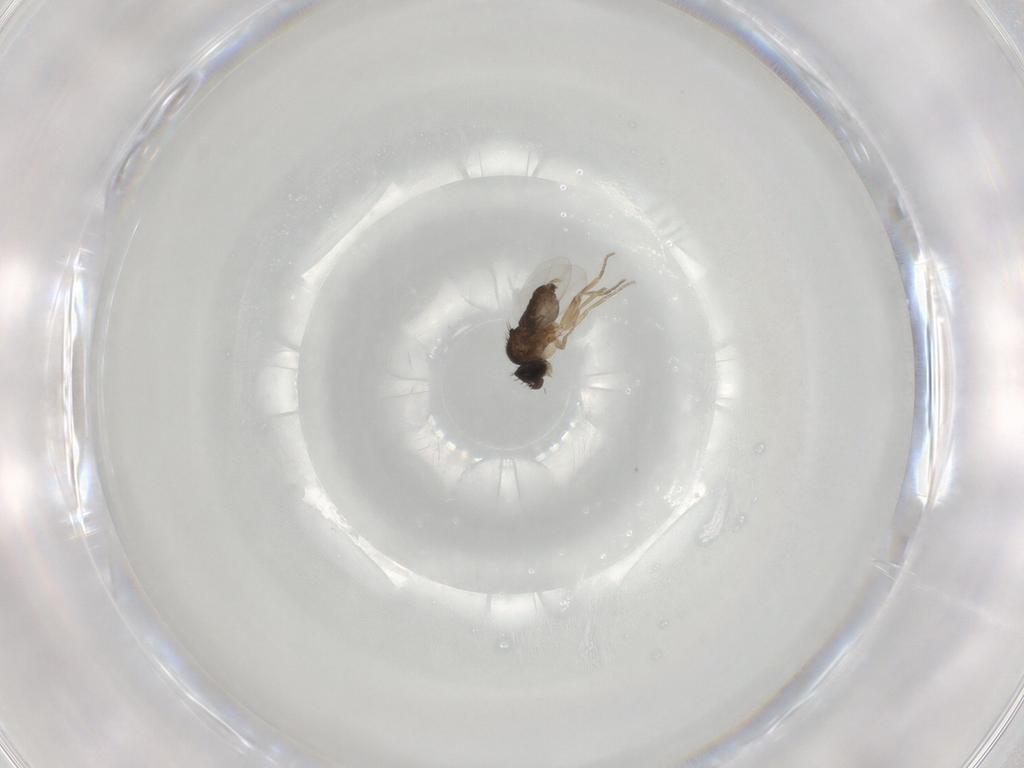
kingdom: Animalia
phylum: Arthropoda
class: Insecta
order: Diptera
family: Phoridae
